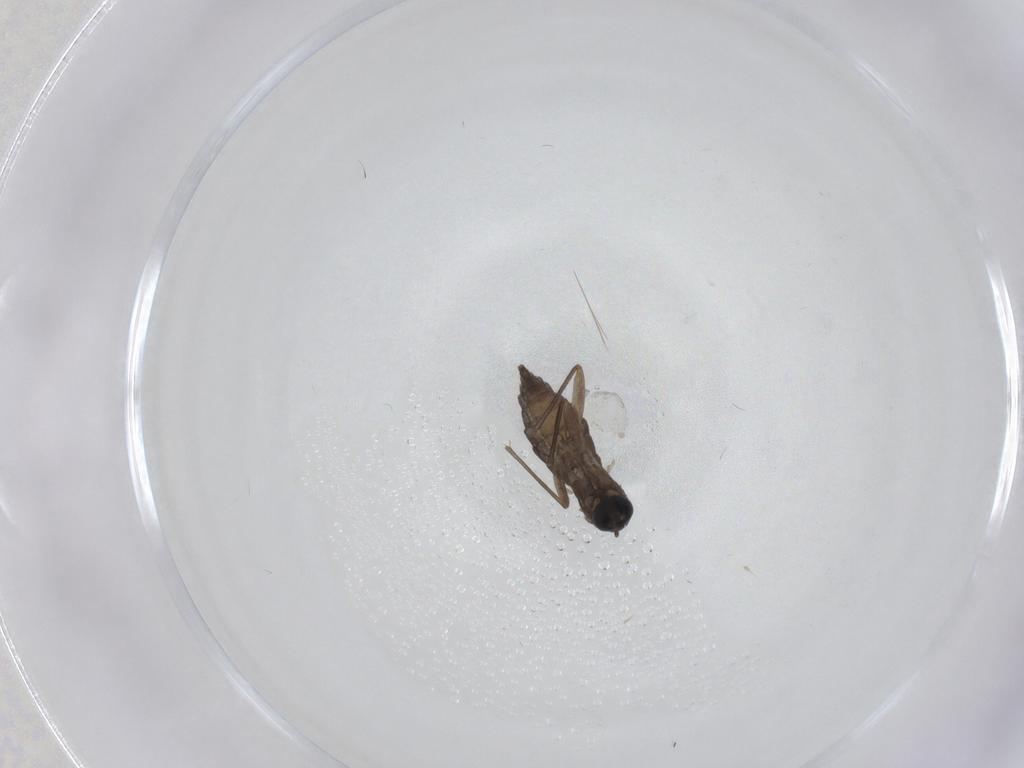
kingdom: Animalia
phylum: Arthropoda
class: Insecta
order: Diptera
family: Sciaridae
